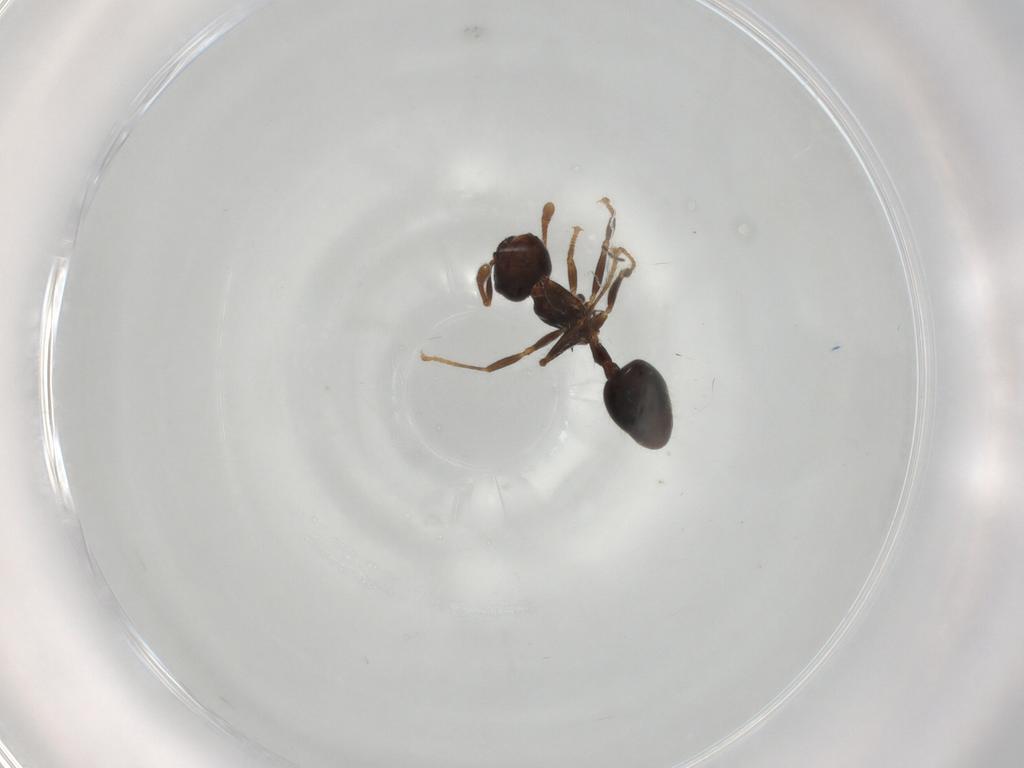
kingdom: Animalia
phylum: Arthropoda
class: Insecta
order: Hymenoptera
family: Formicidae
